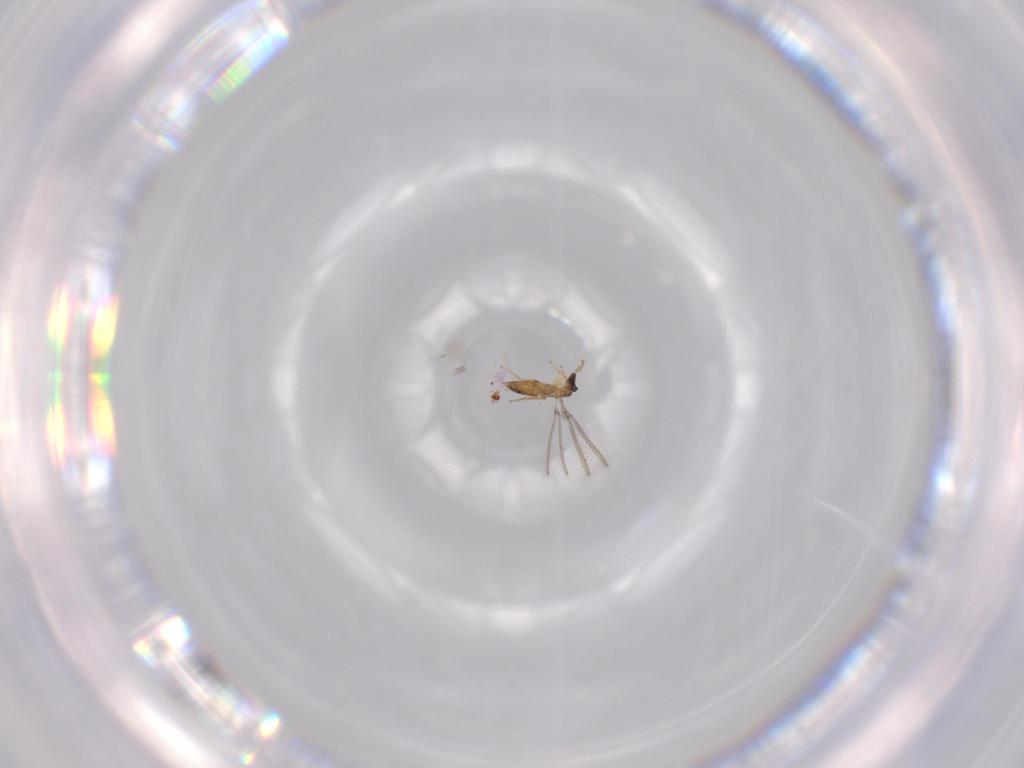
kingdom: Animalia
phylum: Arthropoda
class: Insecta
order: Hymenoptera
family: Mymaridae
